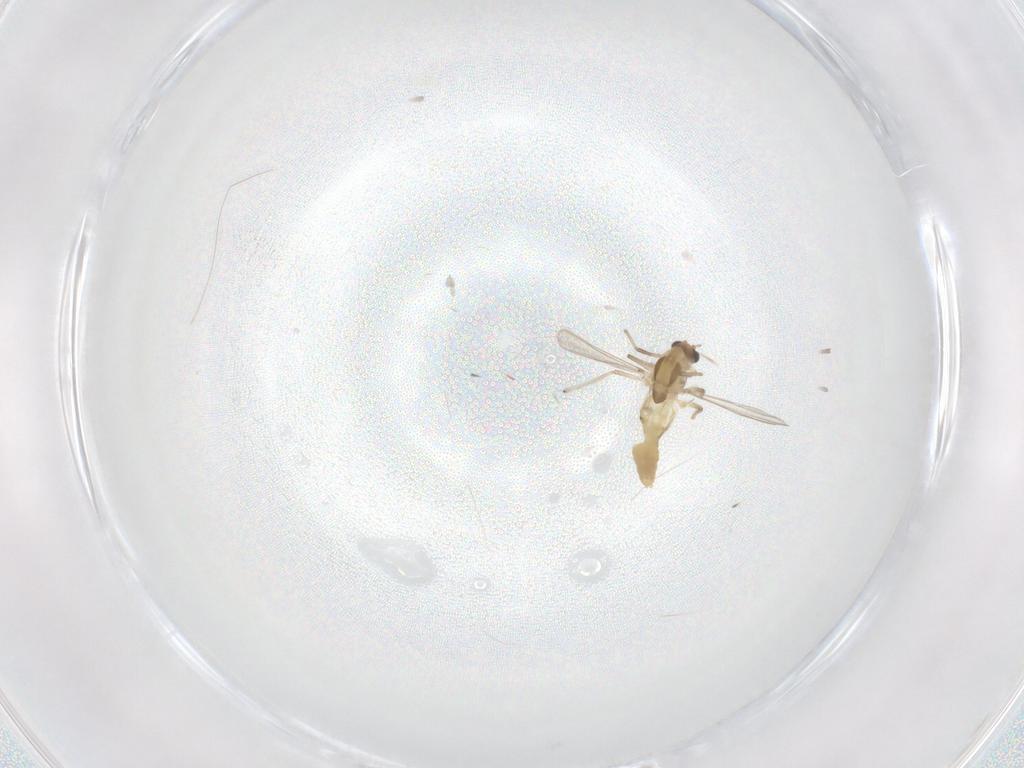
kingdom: Animalia
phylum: Arthropoda
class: Insecta
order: Diptera
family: Chironomidae
